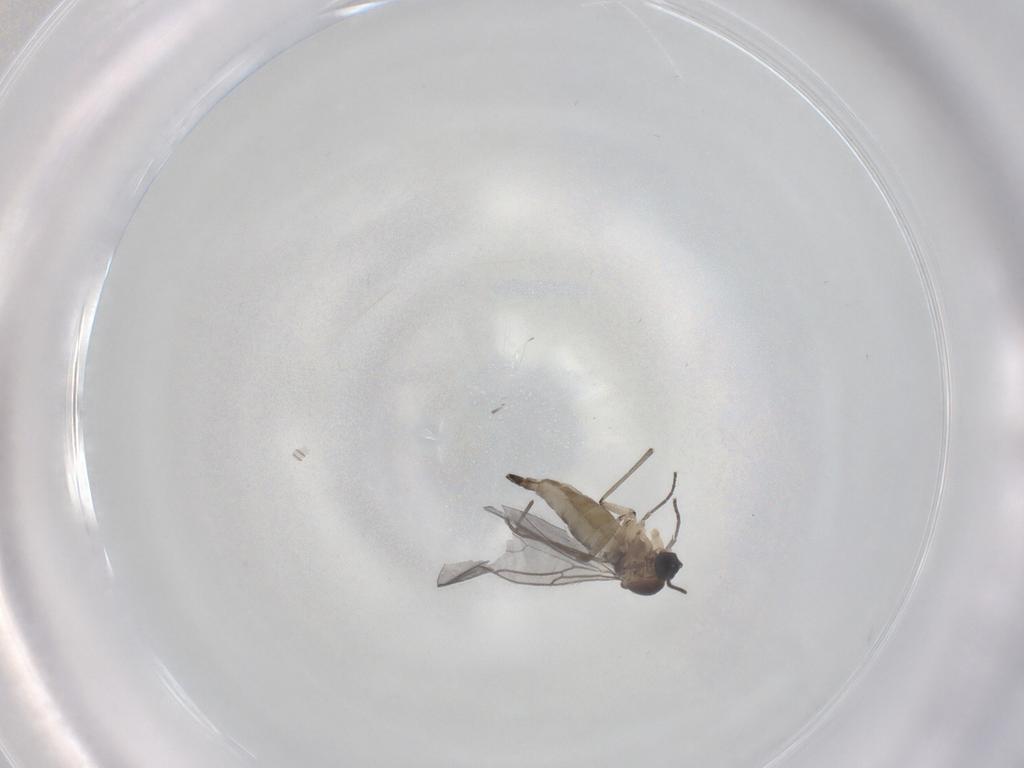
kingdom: Animalia
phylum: Arthropoda
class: Insecta
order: Diptera
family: Sciaridae
